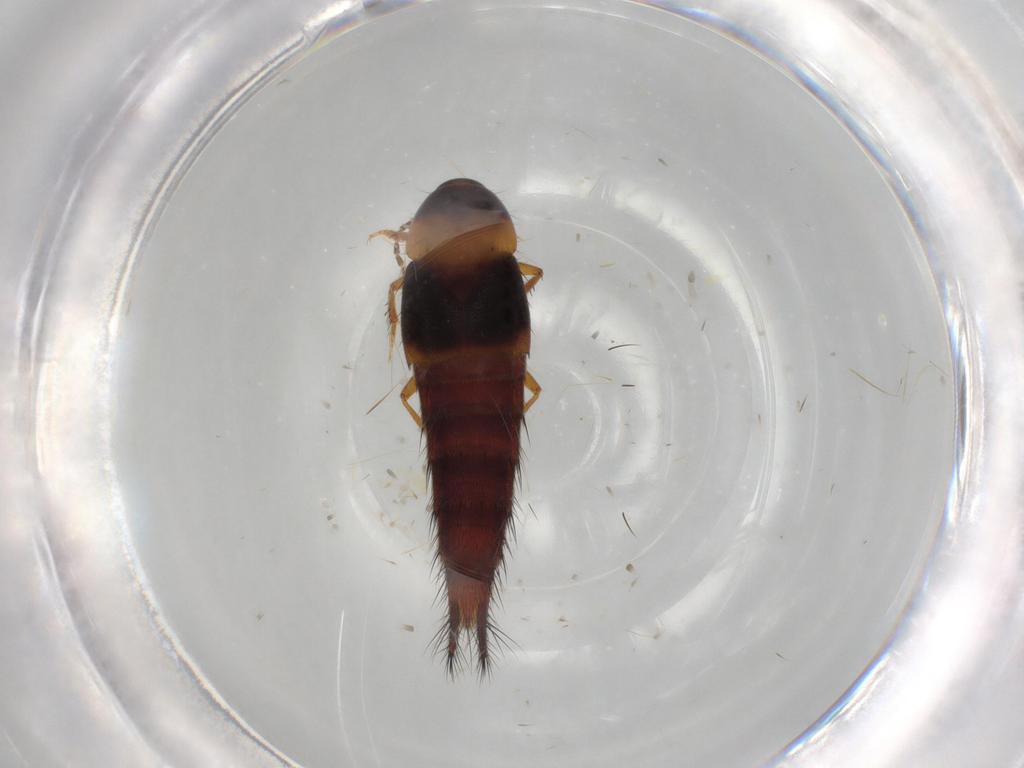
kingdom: Animalia
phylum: Arthropoda
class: Insecta
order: Coleoptera
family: Staphylinidae
